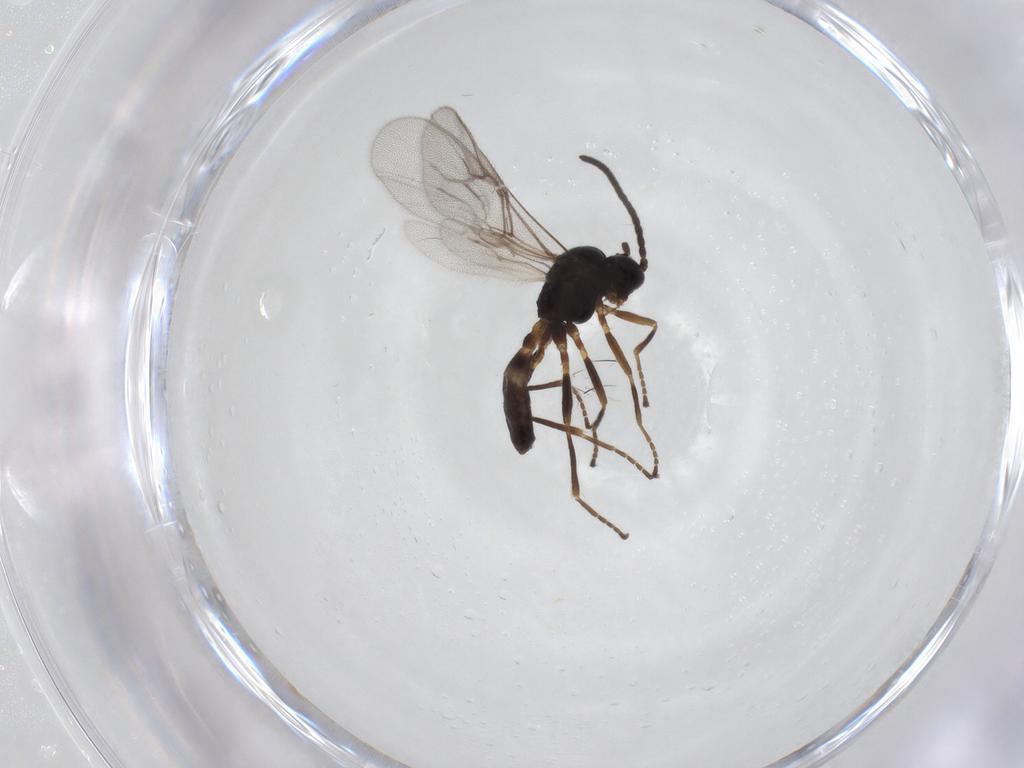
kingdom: Animalia
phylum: Arthropoda
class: Insecta
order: Hymenoptera
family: Braconidae
